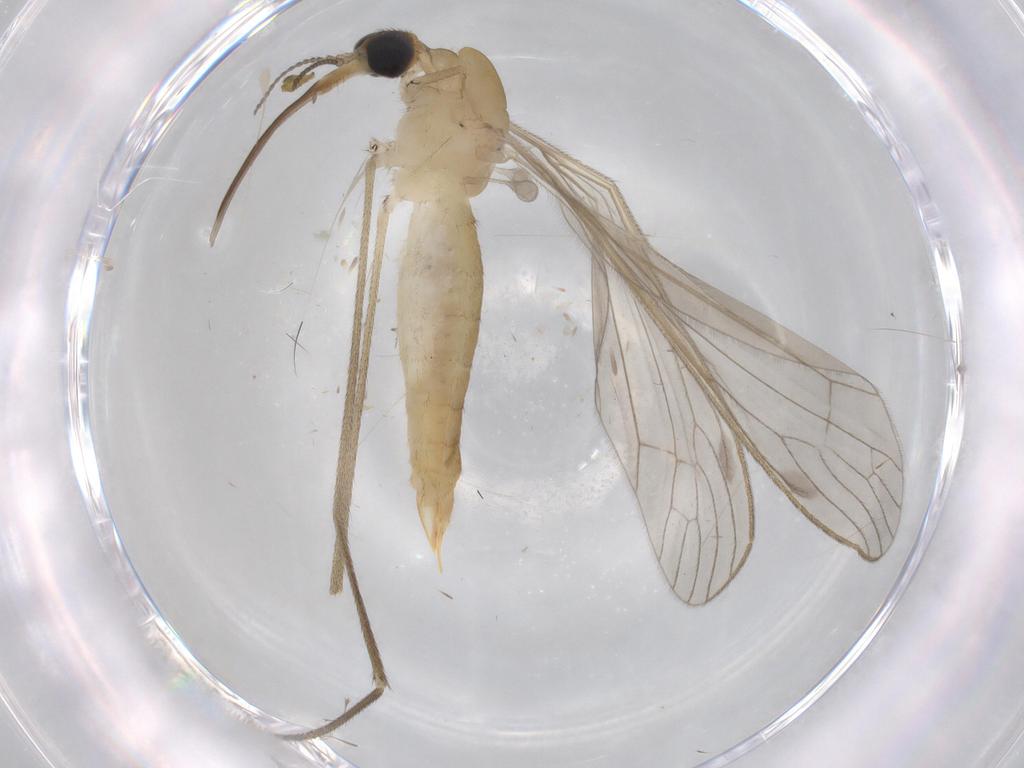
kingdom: Animalia
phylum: Arthropoda
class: Insecta
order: Diptera
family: Limoniidae
